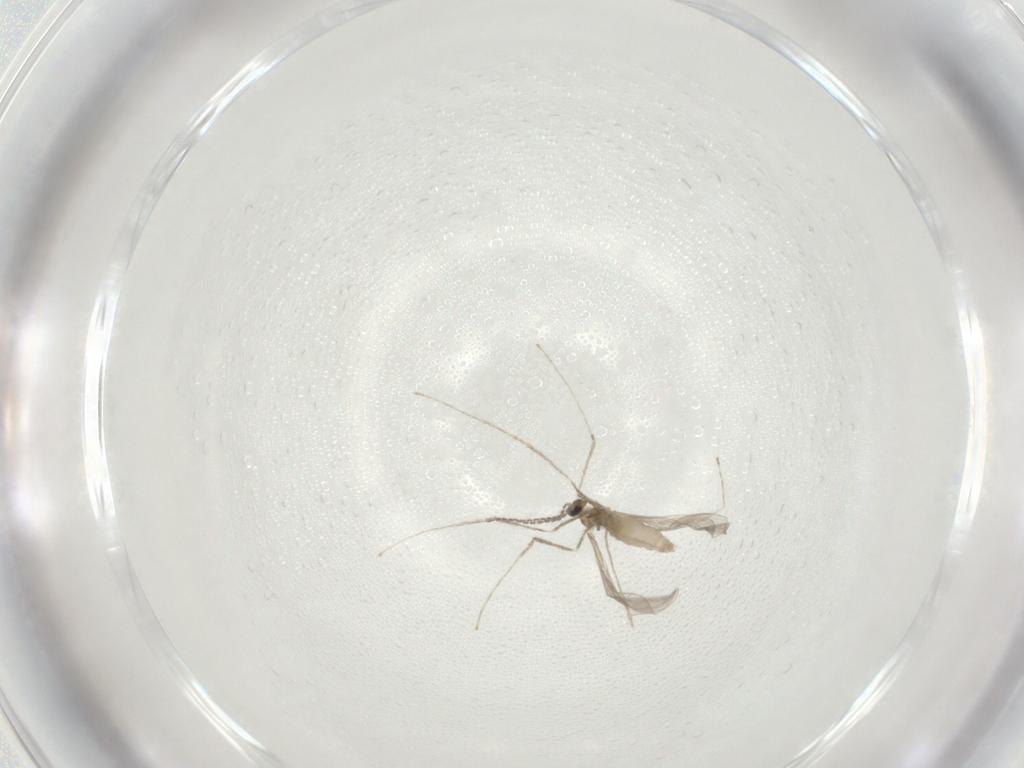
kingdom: Animalia
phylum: Arthropoda
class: Insecta
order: Diptera
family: Cecidomyiidae
